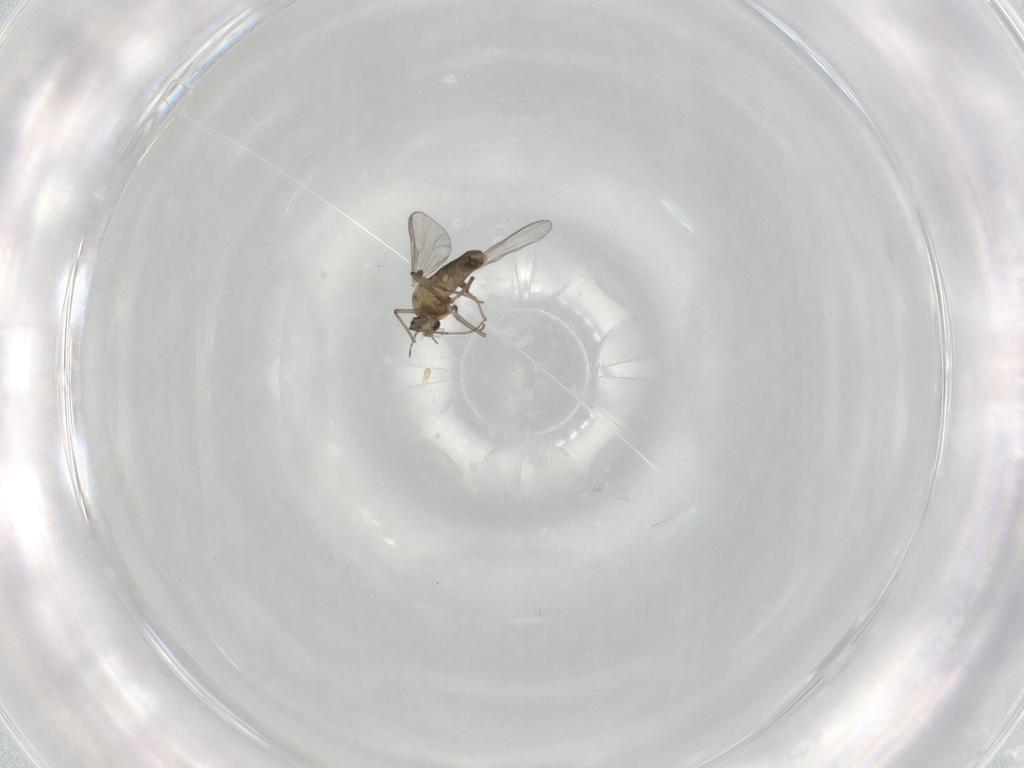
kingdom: Animalia
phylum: Arthropoda
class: Insecta
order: Diptera
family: Chironomidae
